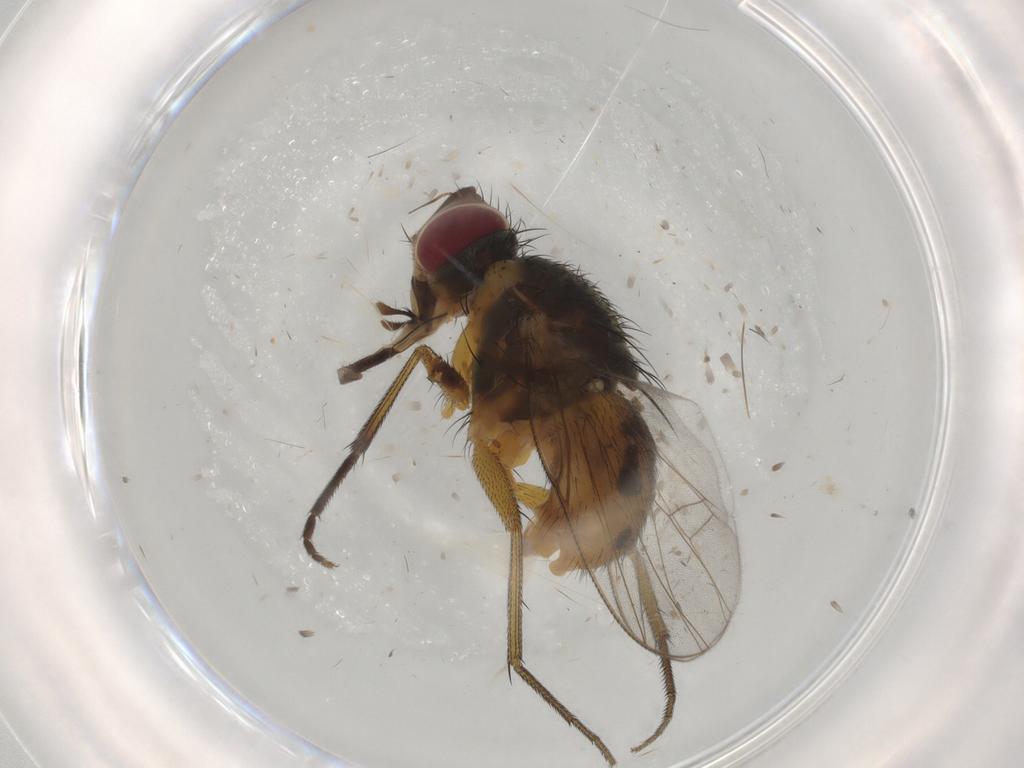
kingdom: Animalia
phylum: Arthropoda
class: Insecta
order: Diptera
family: Muscidae
